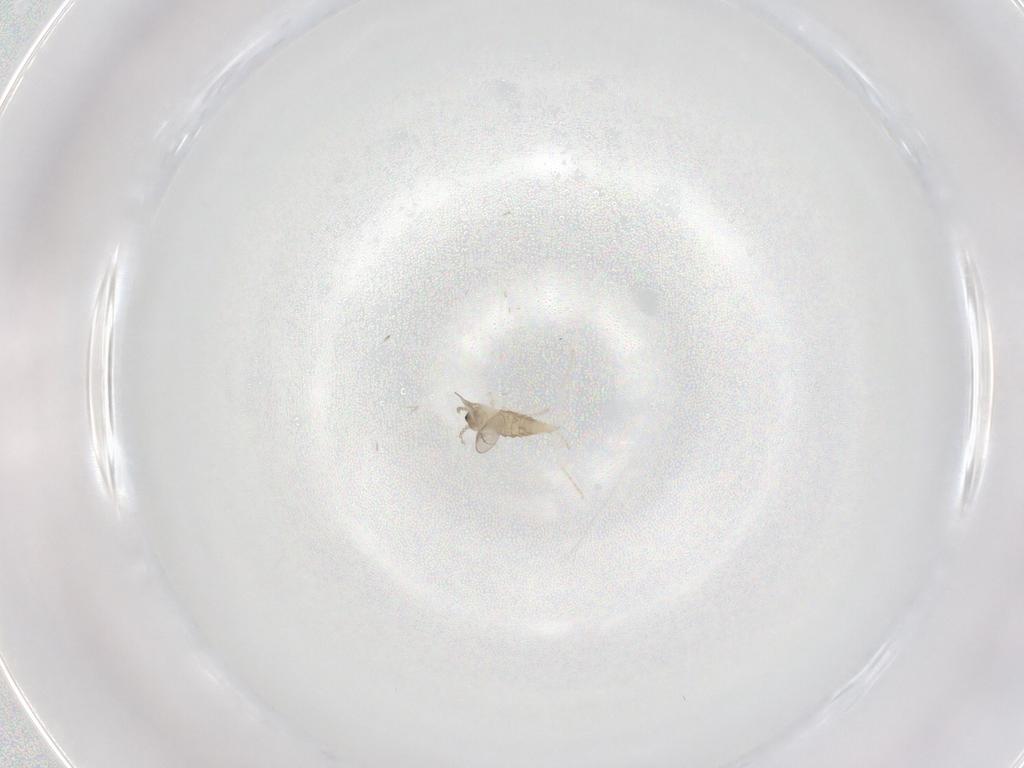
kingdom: Animalia
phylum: Arthropoda
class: Insecta
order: Diptera
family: Cecidomyiidae
